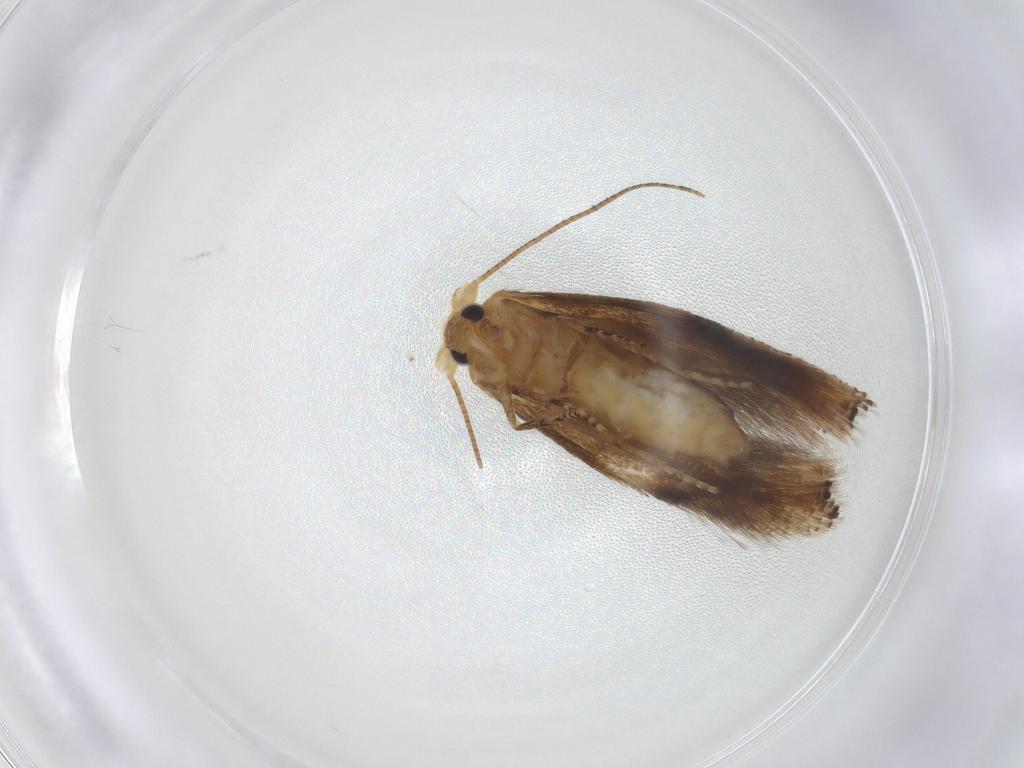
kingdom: Animalia
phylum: Arthropoda
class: Insecta
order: Lepidoptera
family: Bucculatricidae
